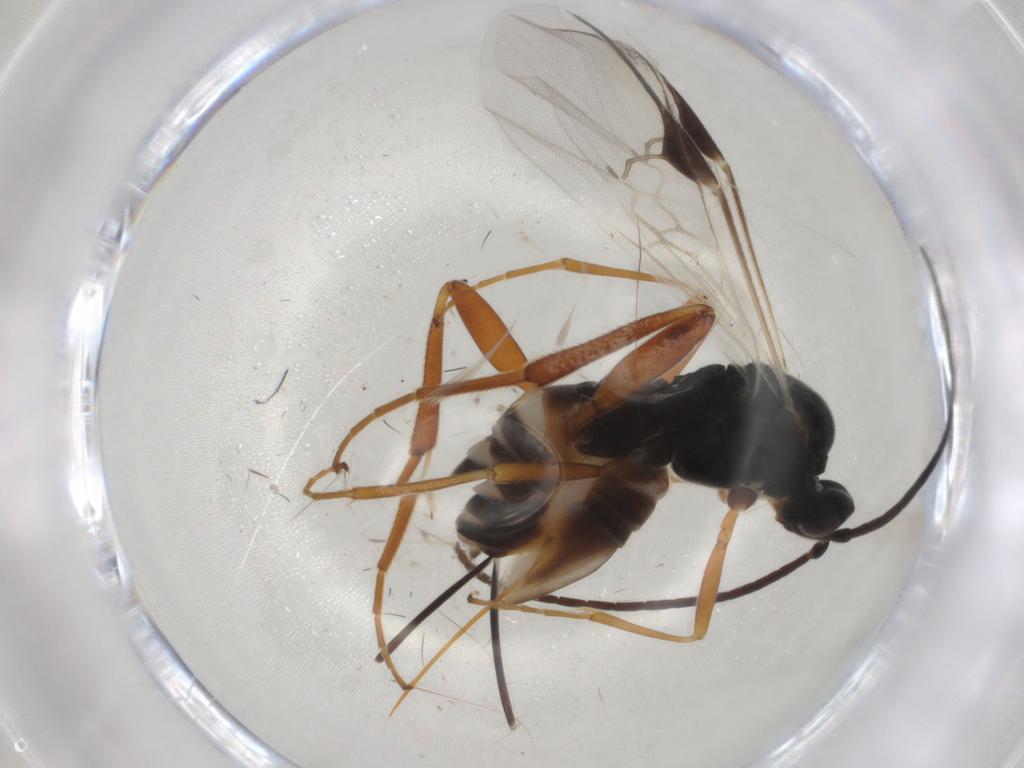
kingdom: Animalia
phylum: Arthropoda
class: Insecta
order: Hymenoptera
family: Braconidae
